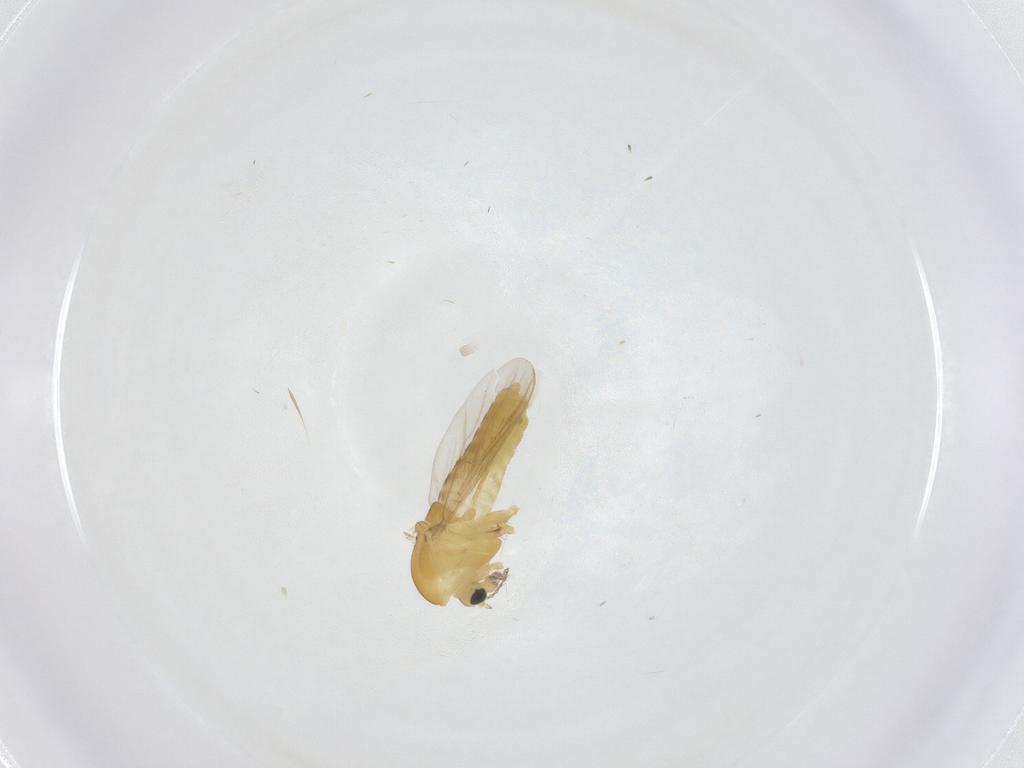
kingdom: Animalia
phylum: Arthropoda
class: Insecta
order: Diptera
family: Chironomidae
